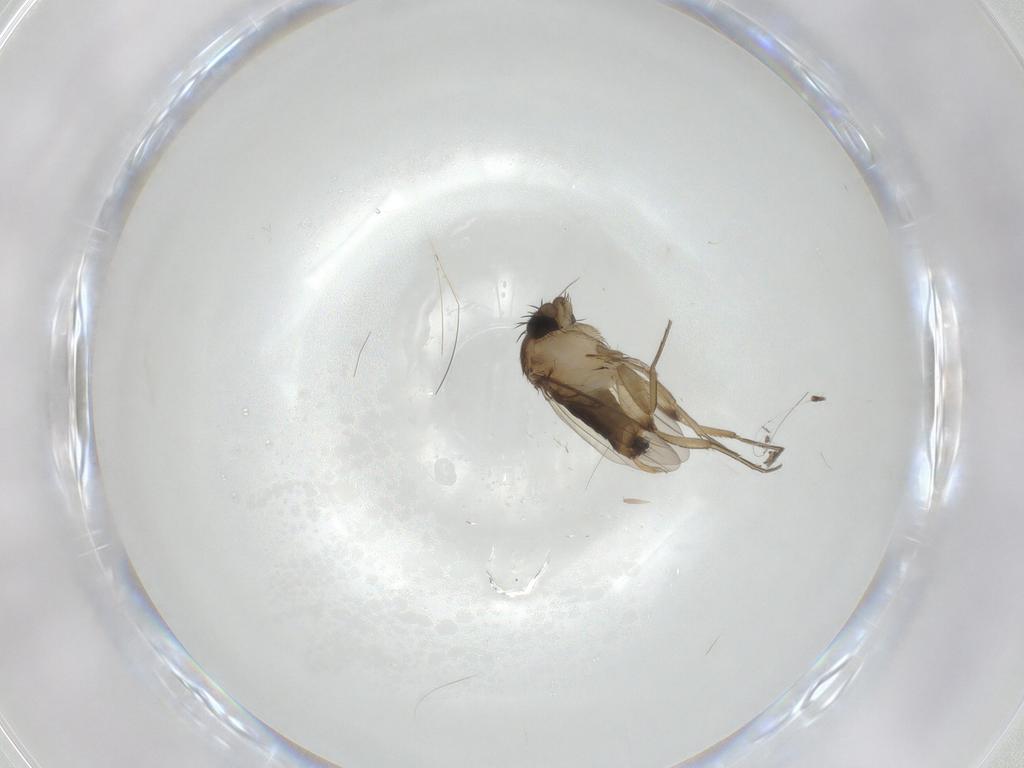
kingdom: Animalia
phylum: Arthropoda
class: Insecta
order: Diptera
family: Phoridae
